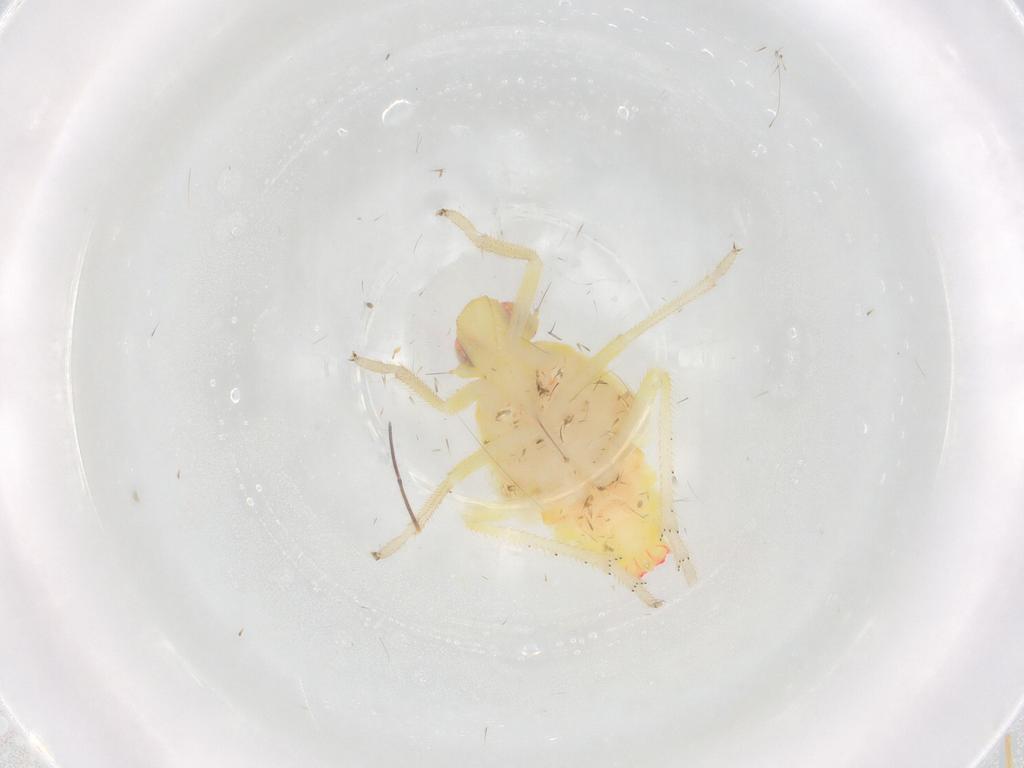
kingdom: Animalia
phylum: Arthropoda
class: Insecta
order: Hemiptera
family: Tropiduchidae
